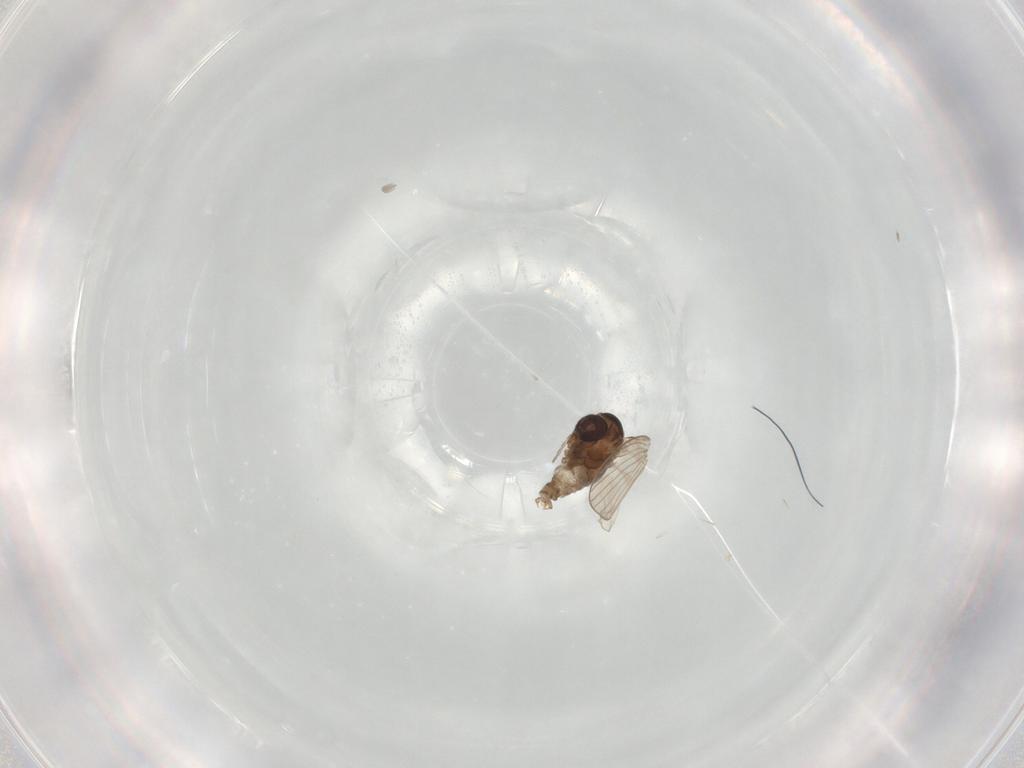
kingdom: Animalia
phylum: Arthropoda
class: Insecta
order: Diptera
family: Psychodidae
